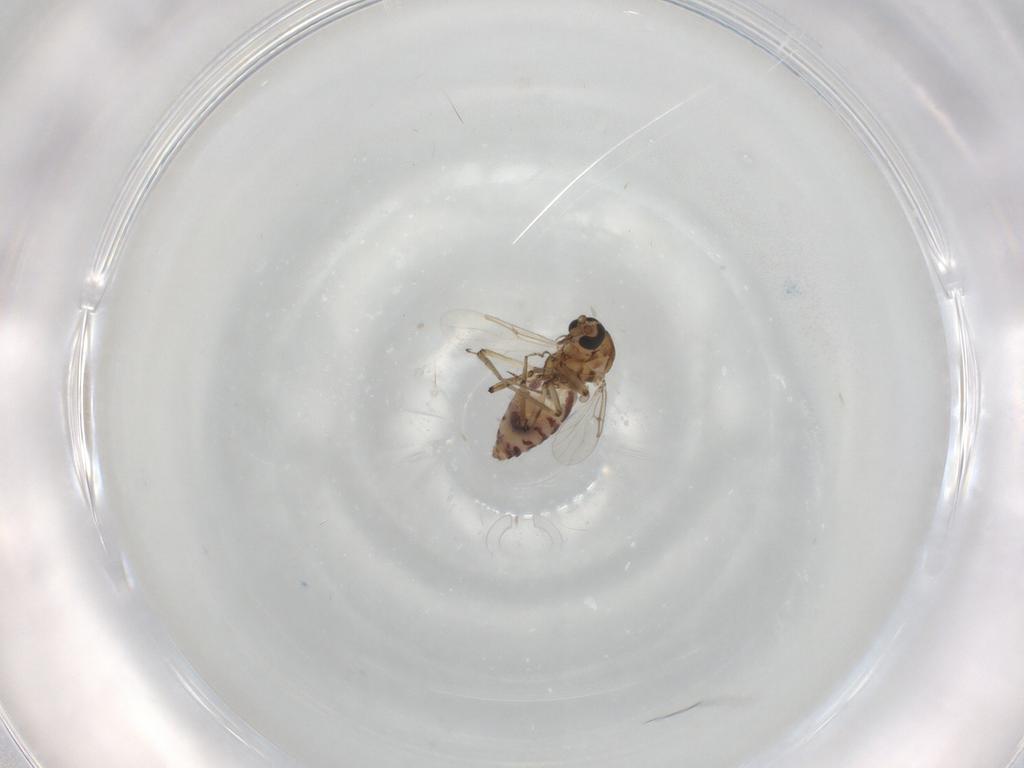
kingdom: Animalia
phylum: Arthropoda
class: Insecta
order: Diptera
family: Ceratopogonidae
